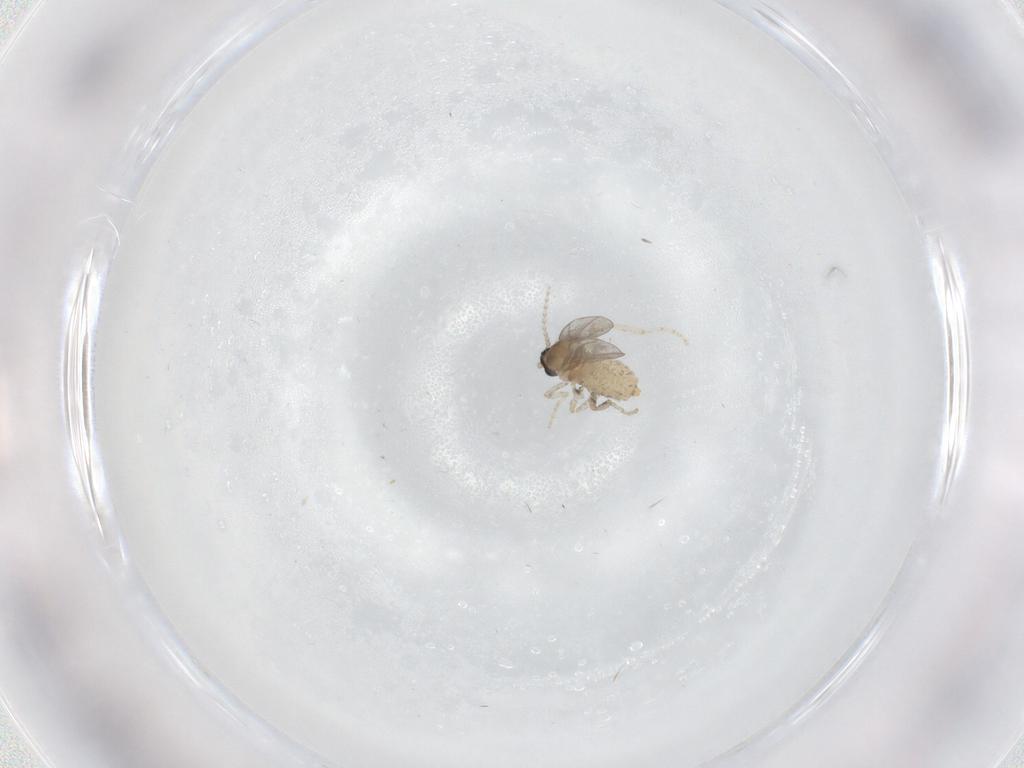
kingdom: Animalia
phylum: Arthropoda
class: Insecta
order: Diptera
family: Cecidomyiidae
